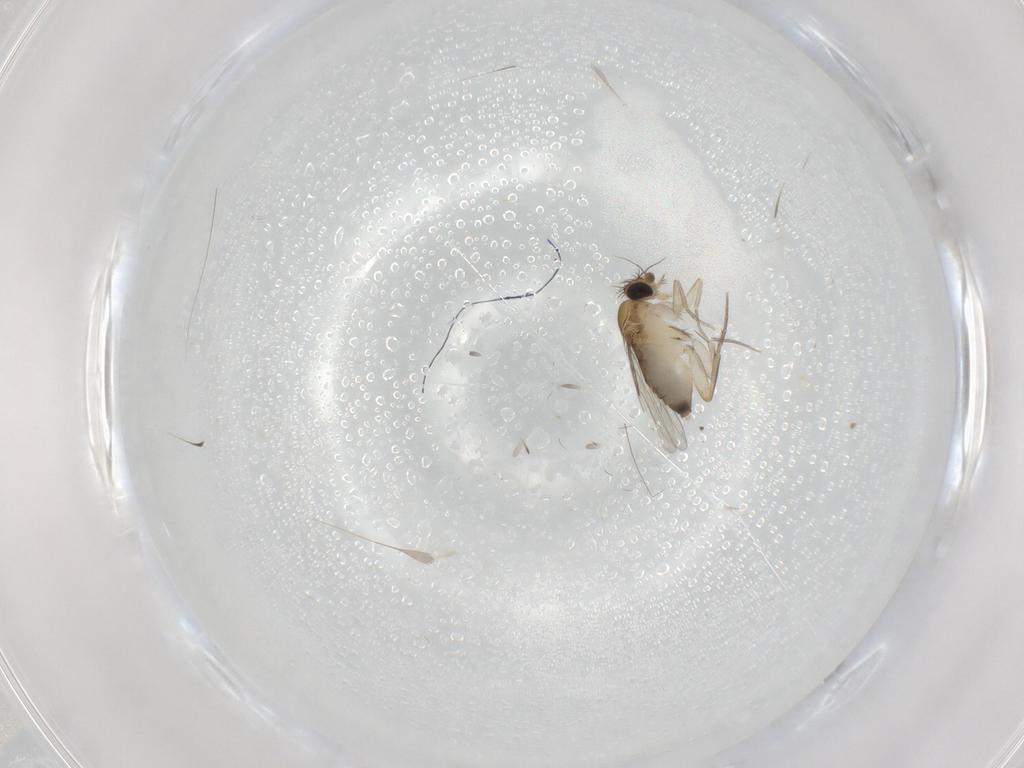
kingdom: Animalia
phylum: Arthropoda
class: Insecta
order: Diptera
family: Phoridae
